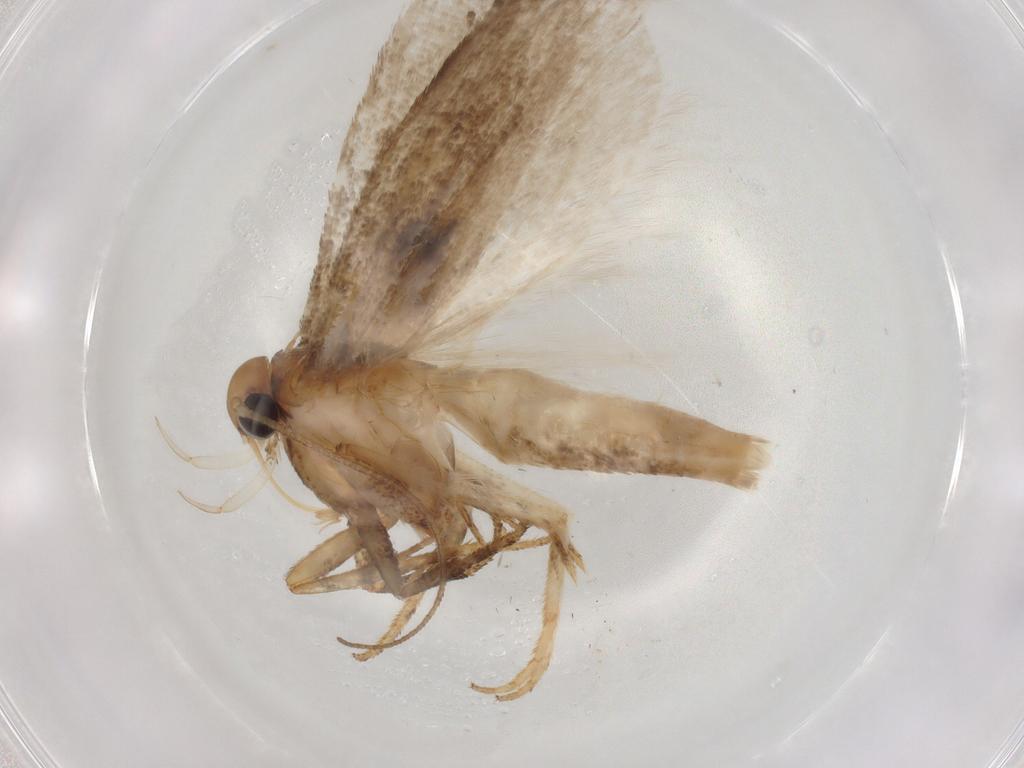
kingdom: Animalia
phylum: Arthropoda
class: Insecta
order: Lepidoptera
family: Gelechiidae
